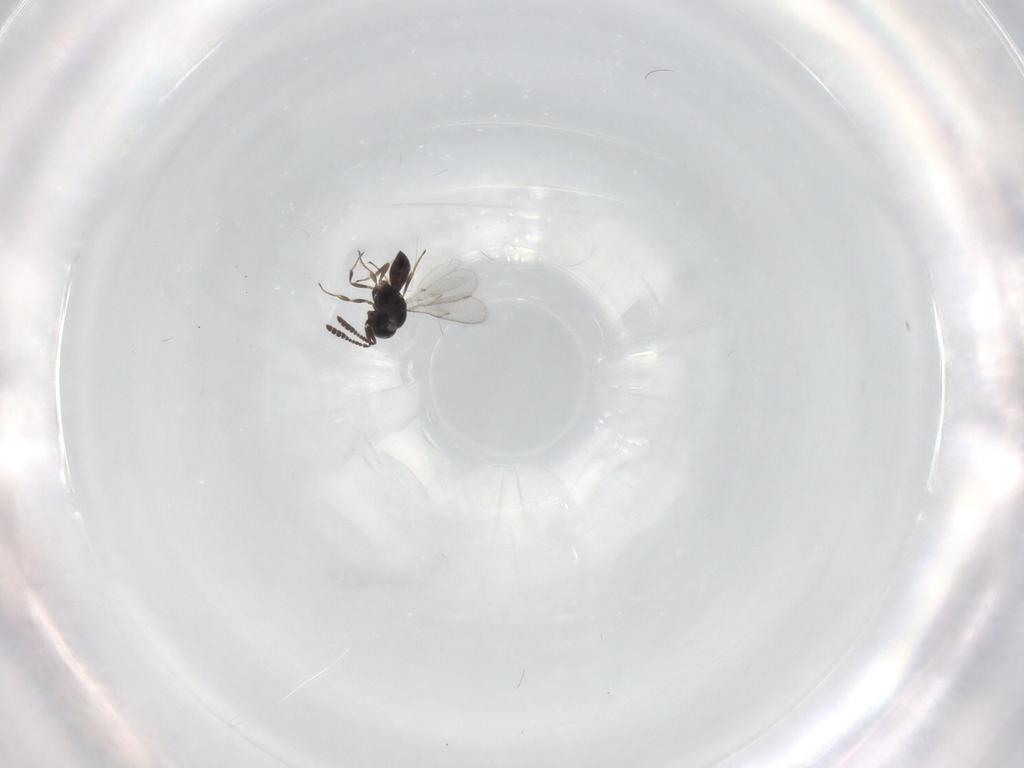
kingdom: Animalia
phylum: Arthropoda
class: Insecta
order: Hymenoptera
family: Scelionidae
